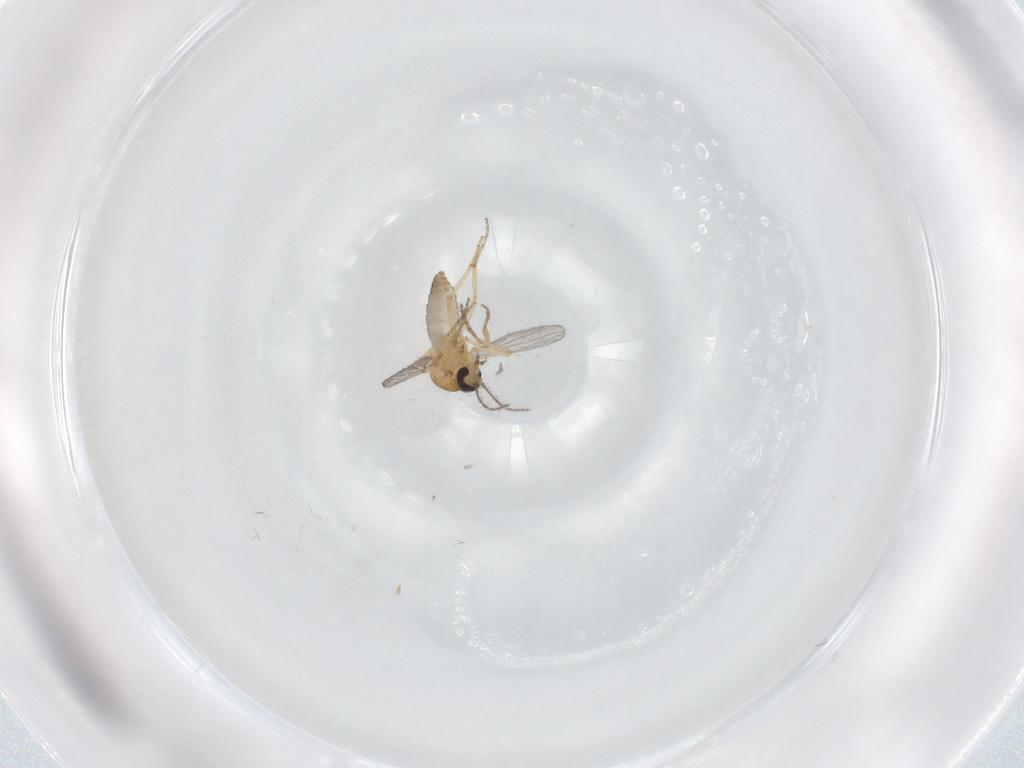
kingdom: Animalia
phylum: Arthropoda
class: Insecta
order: Diptera
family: Ceratopogonidae
